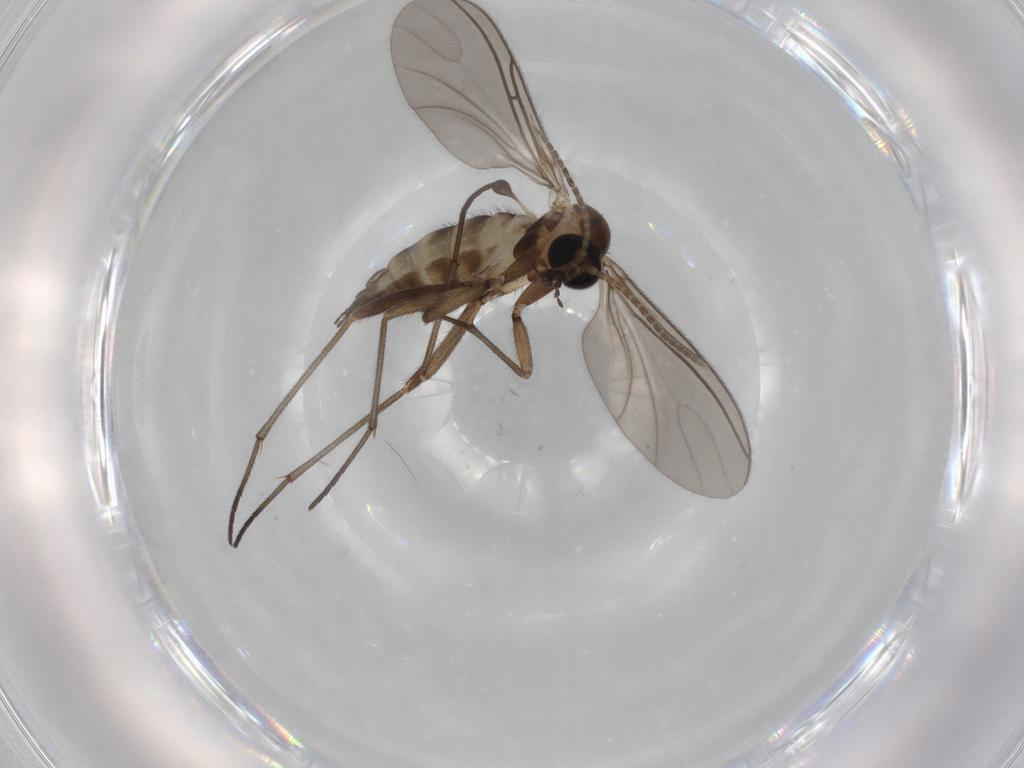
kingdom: Animalia
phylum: Arthropoda
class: Insecta
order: Diptera
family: Sciaridae
